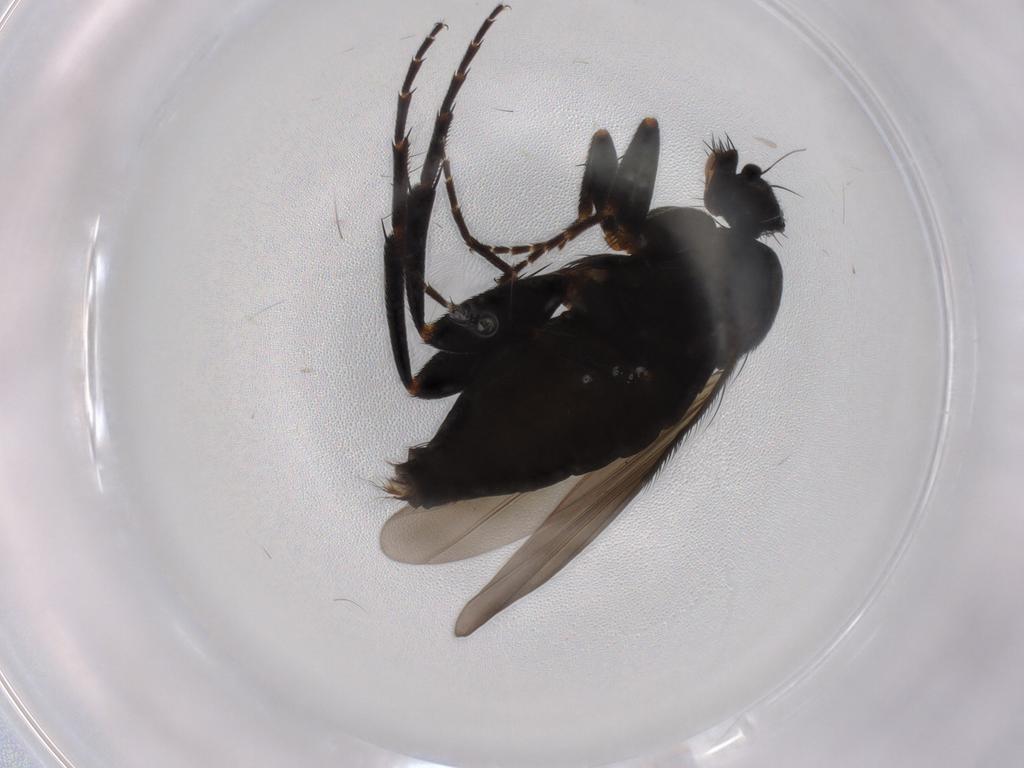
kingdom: Animalia
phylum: Arthropoda
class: Insecta
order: Diptera
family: Phoridae
